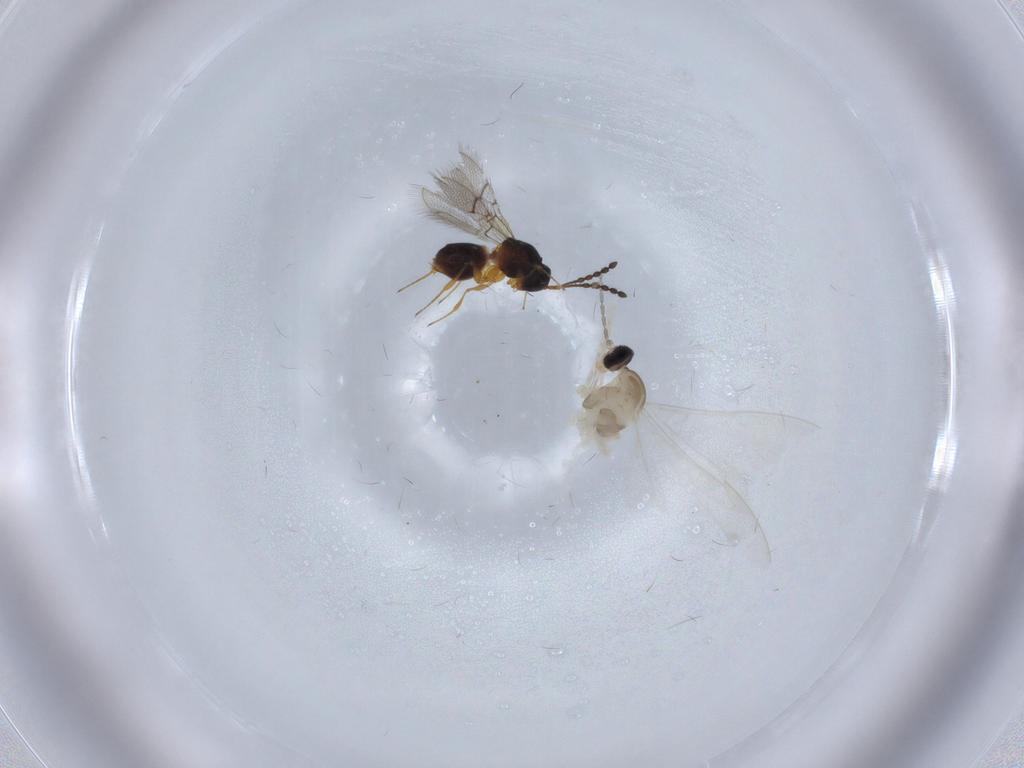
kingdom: Animalia
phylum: Arthropoda
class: Insecta
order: Diptera
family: Cecidomyiidae
